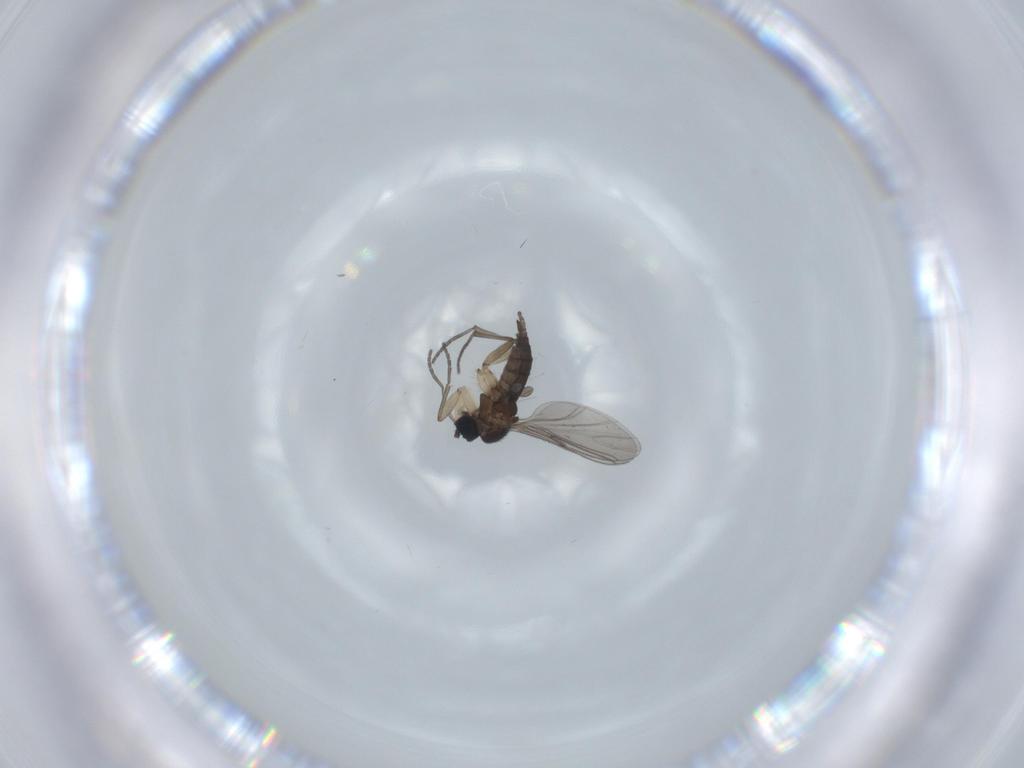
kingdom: Animalia
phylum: Arthropoda
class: Insecta
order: Diptera
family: Sciaridae
